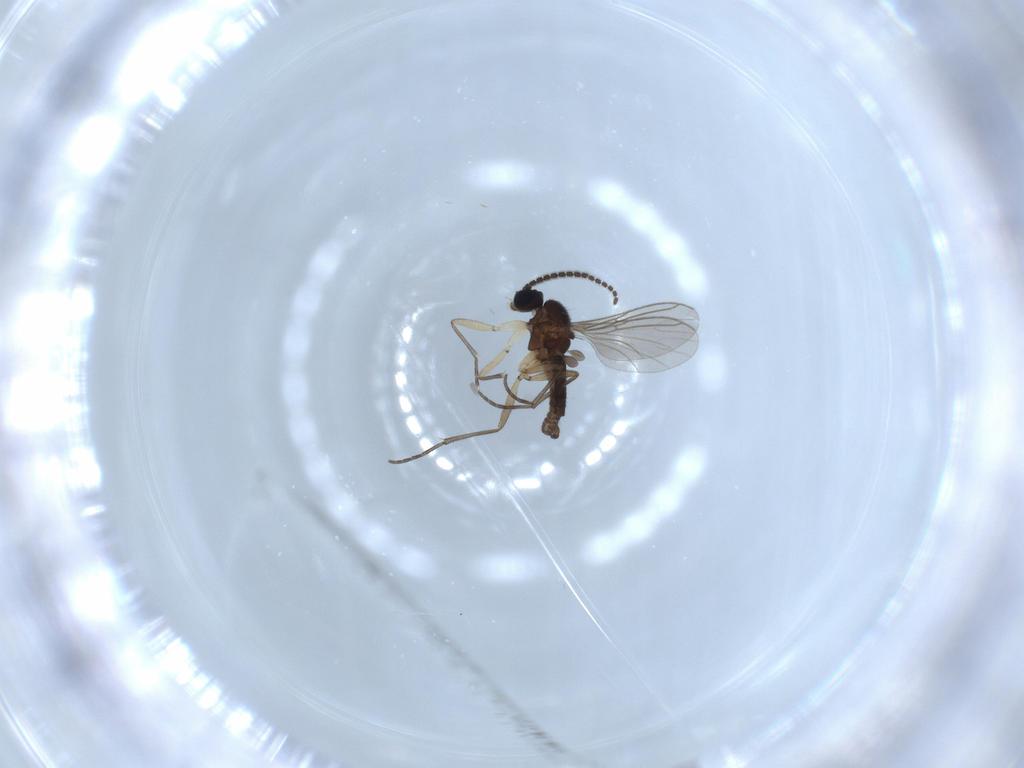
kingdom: Animalia
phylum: Arthropoda
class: Insecta
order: Diptera
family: Sciaridae
